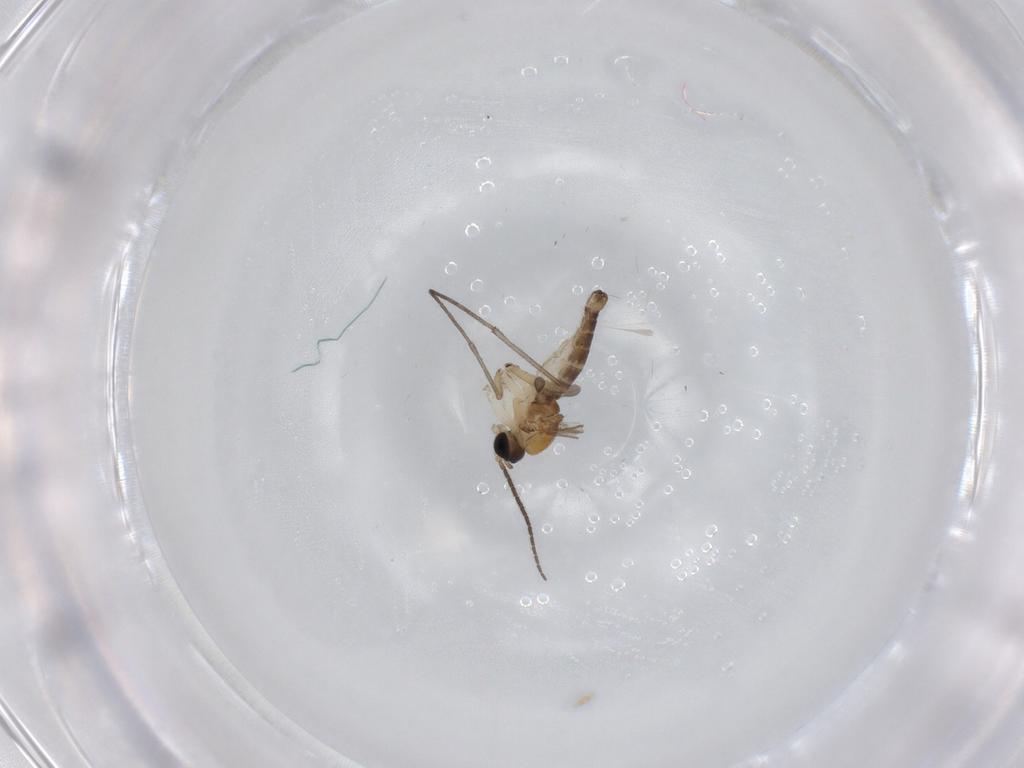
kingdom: Animalia
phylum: Arthropoda
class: Insecta
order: Diptera
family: Sciaridae
